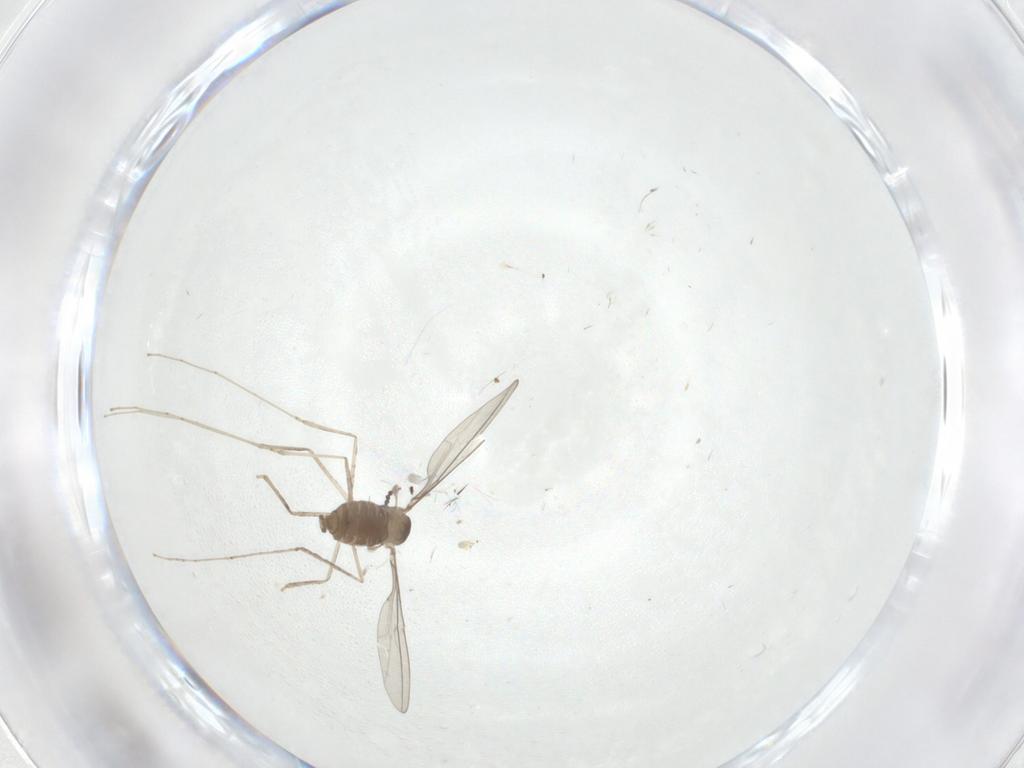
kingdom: Animalia
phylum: Arthropoda
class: Insecta
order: Diptera
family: Cecidomyiidae
